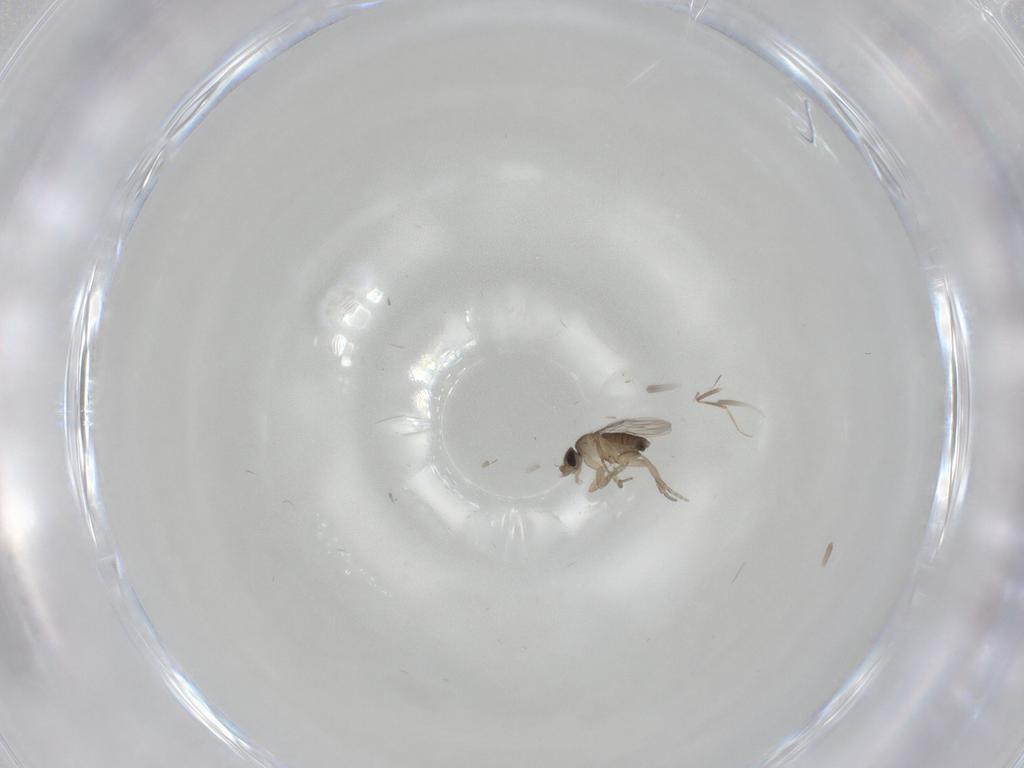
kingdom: Animalia
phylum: Arthropoda
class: Insecta
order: Diptera
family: Phoridae
